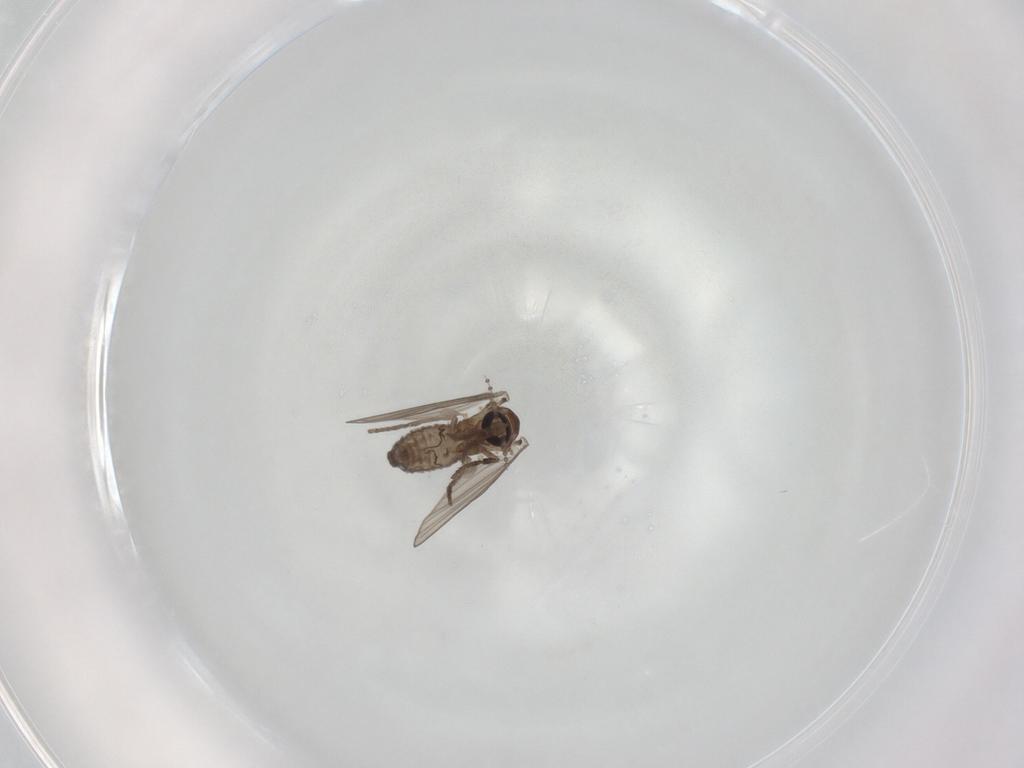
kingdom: Animalia
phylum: Arthropoda
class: Insecta
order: Diptera
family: Psychodidae
